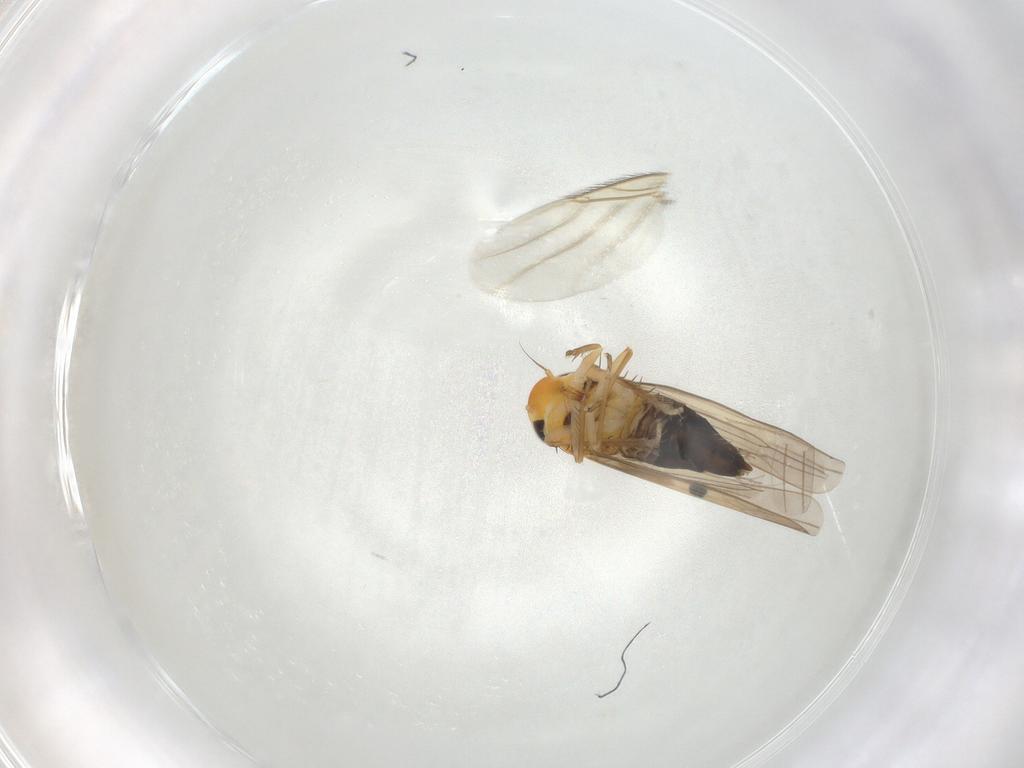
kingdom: Animalia
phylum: Arthropoda
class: Insecta
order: Hemiptera
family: Cicadellidae
